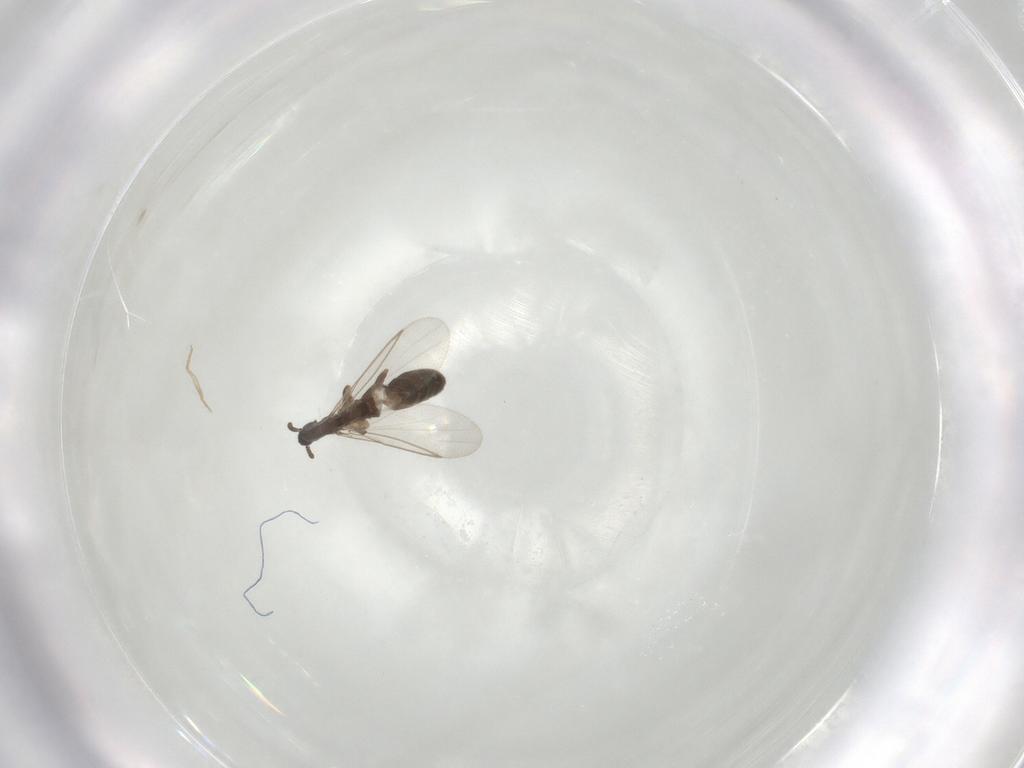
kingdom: Animalia
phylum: Arthropoda
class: Insecta
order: Diptera
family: Scatopsidae
